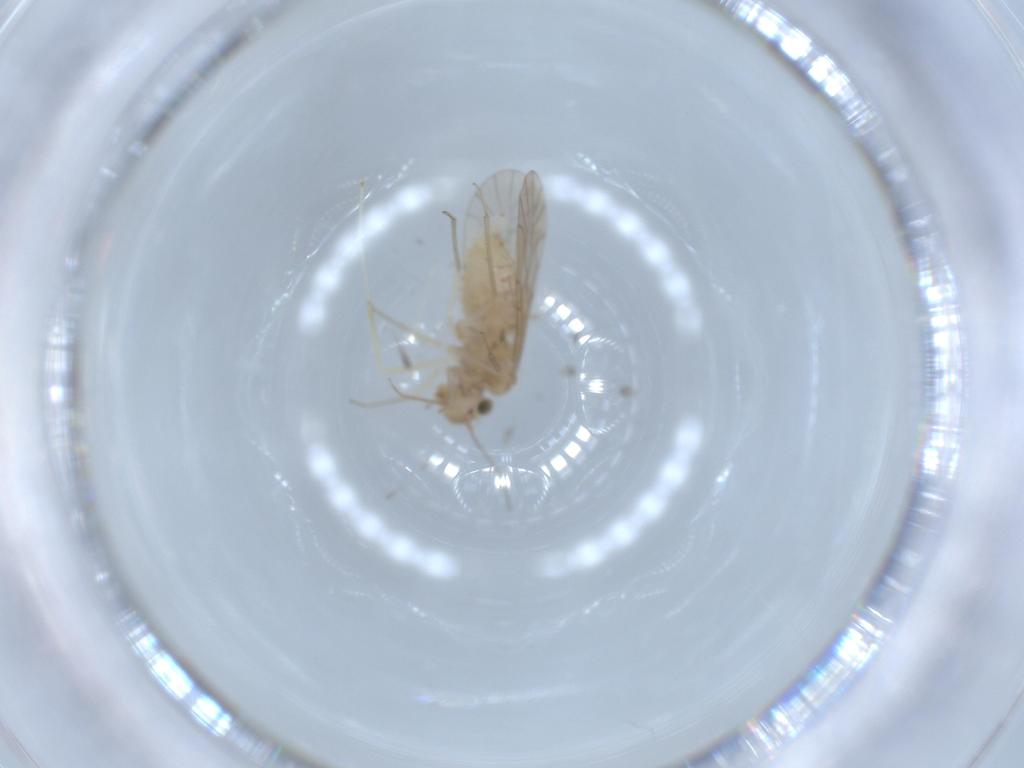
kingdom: Animalia
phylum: Arthropoda
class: Insecta
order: Psocodea
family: Lachesillidae
